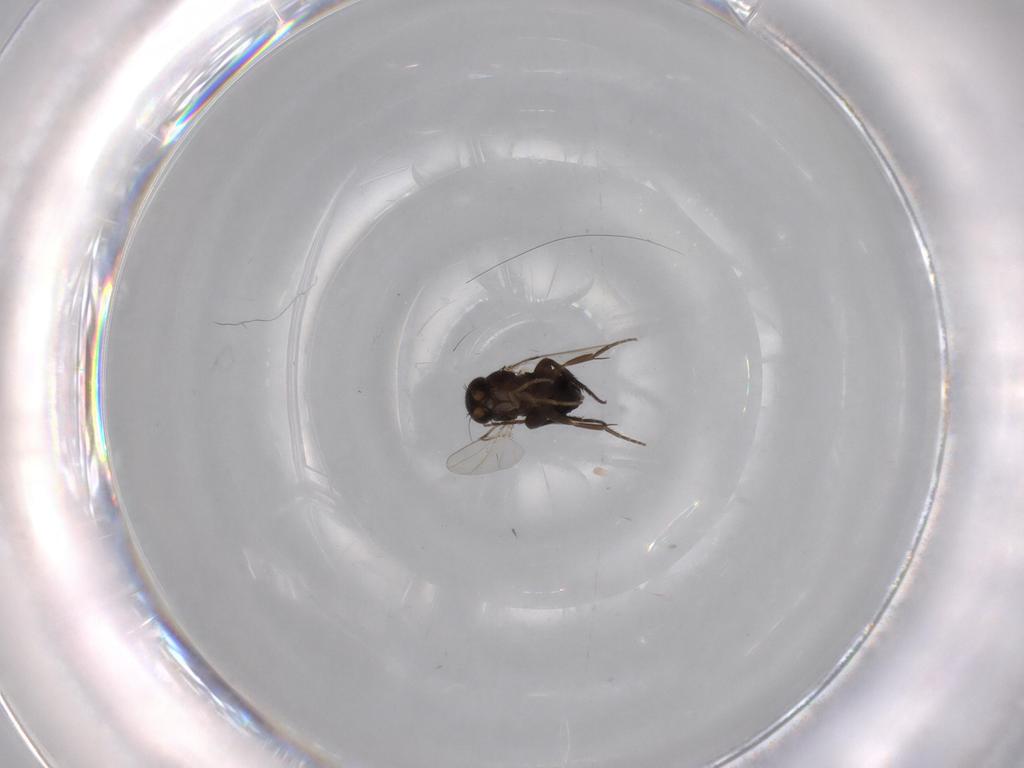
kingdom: Animalia
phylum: Arthropoda
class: Insecta
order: Diptera
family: Phoridae
